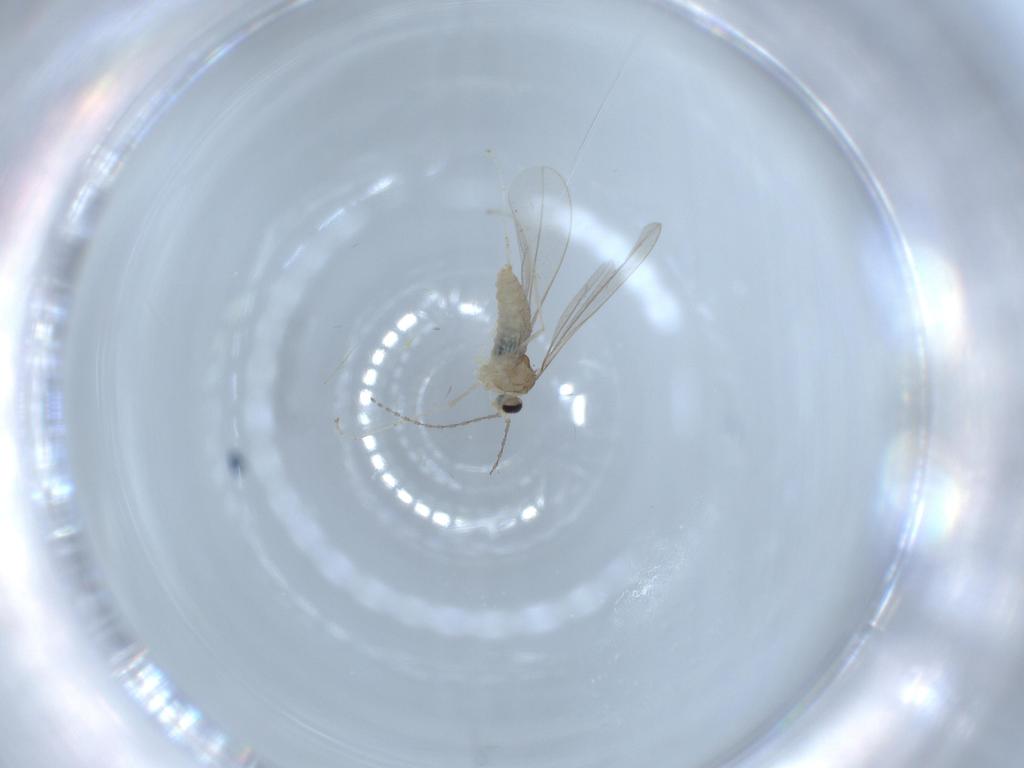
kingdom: Animalia
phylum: Arthropoda
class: Insecta
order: Diptera
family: Cecidomyiidae
